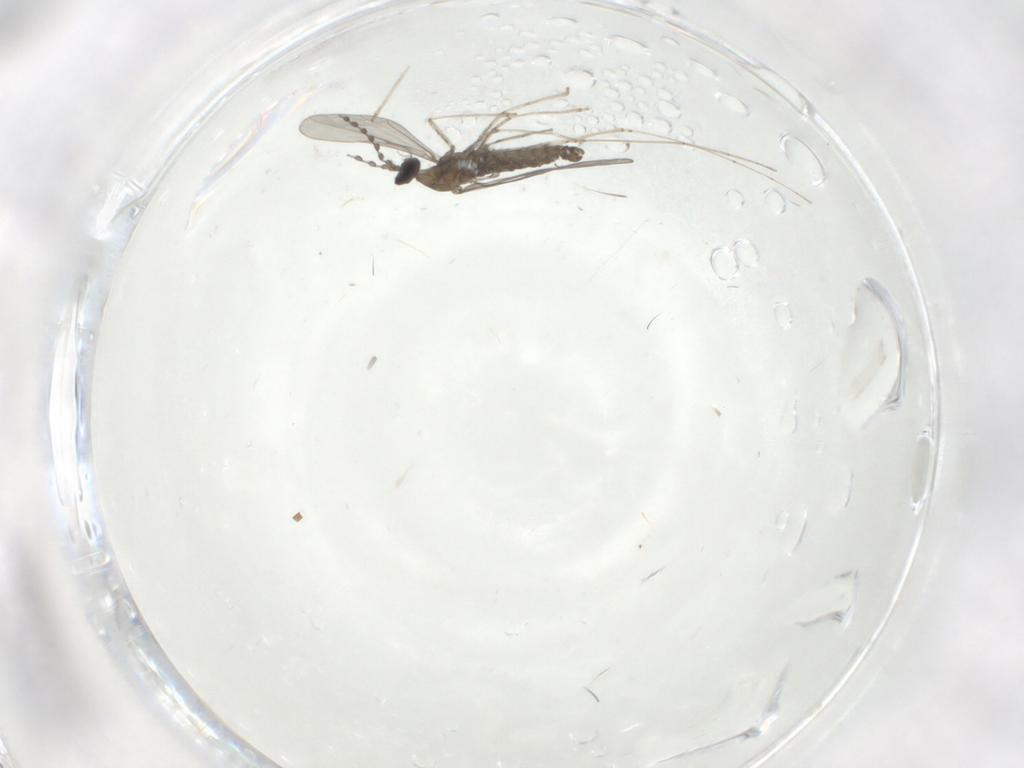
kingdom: Animalia
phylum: Arthropoda
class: Insecta
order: Diptera
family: Cecidomyiidae
